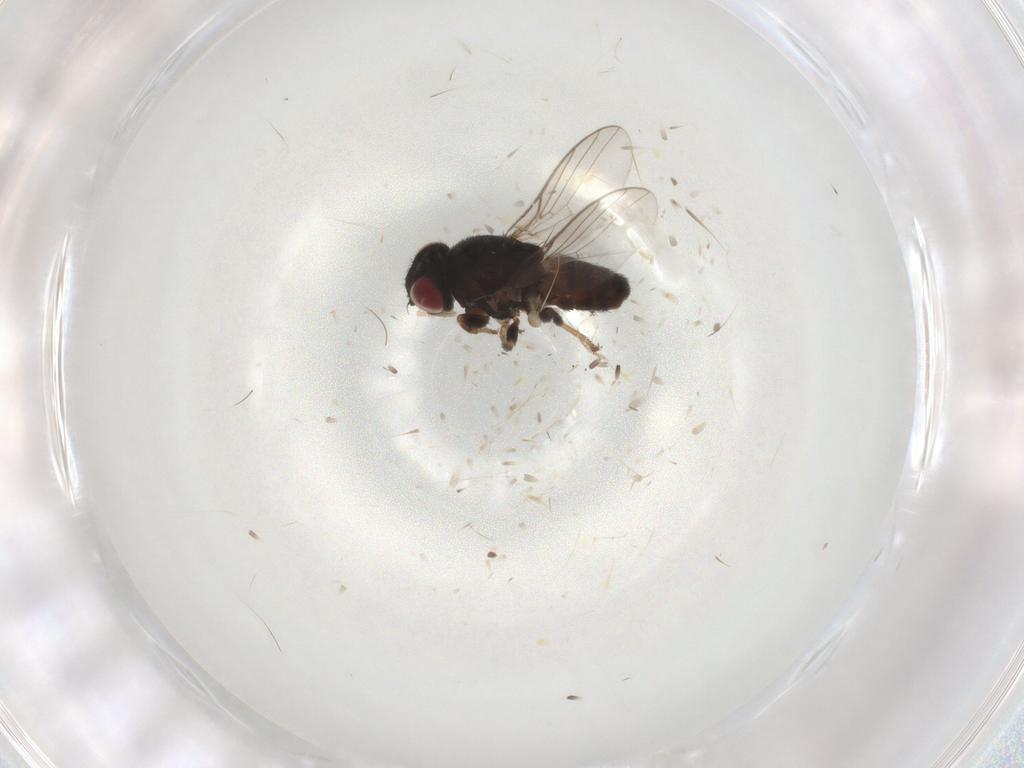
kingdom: Animalia
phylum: Arthropoda
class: Insecta
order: Diptera
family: Chloropidae
